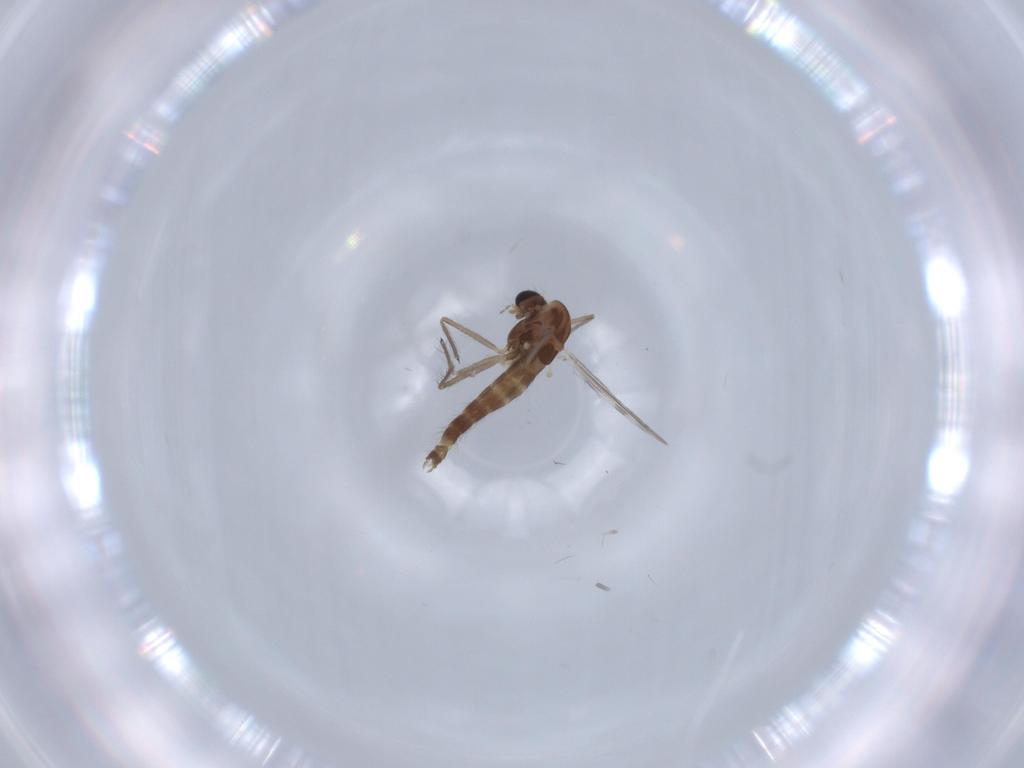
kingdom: Animalia
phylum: Arthropoda
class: Insecta
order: Diptera
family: Chironomidae
